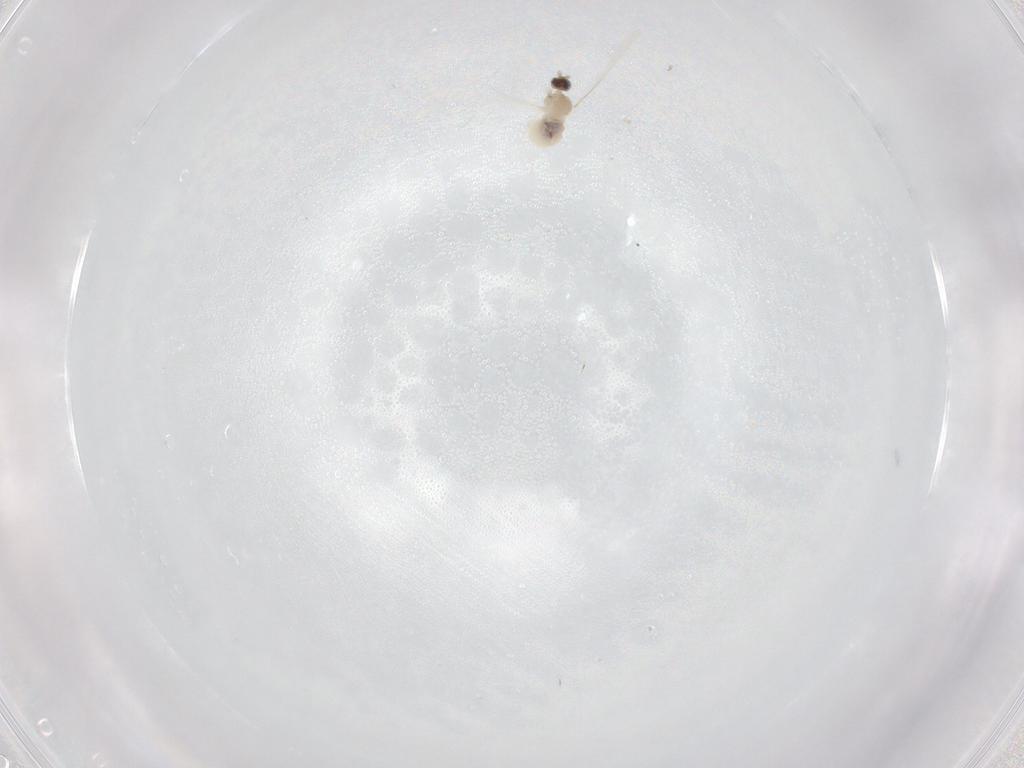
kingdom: Animalia
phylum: Arthropoda
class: Insecta
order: Diptera
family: Cecidomyiidae
